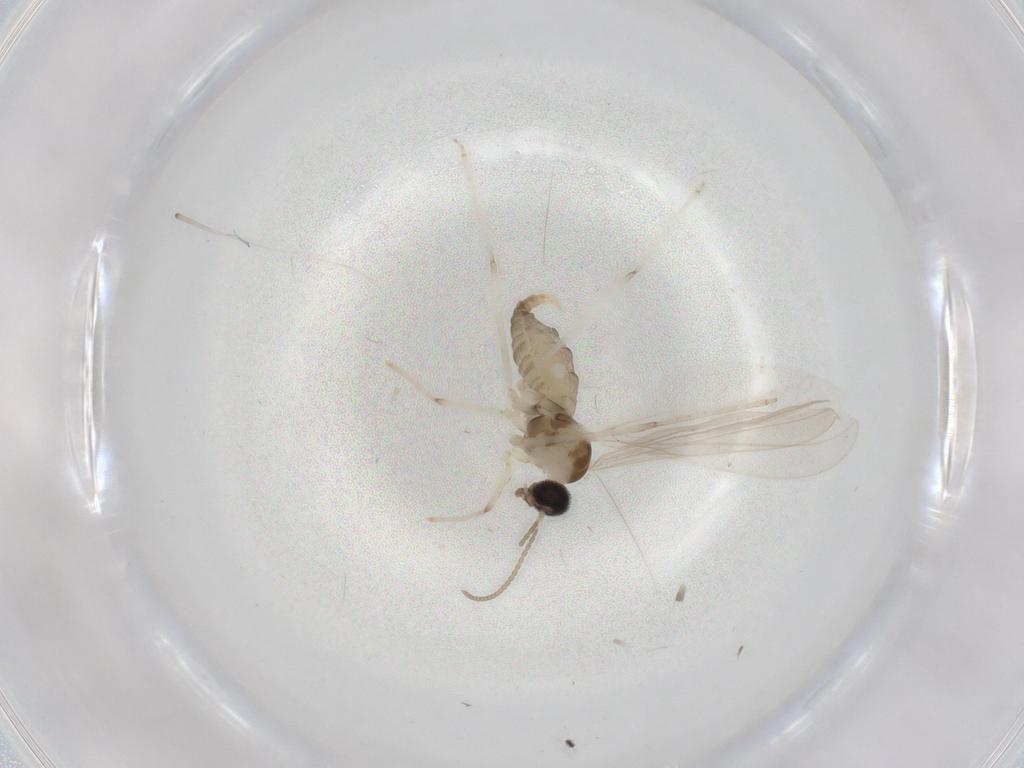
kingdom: Animalia
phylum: Arthropoda
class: Insecta
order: Diptera
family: Cecidomyiidae
